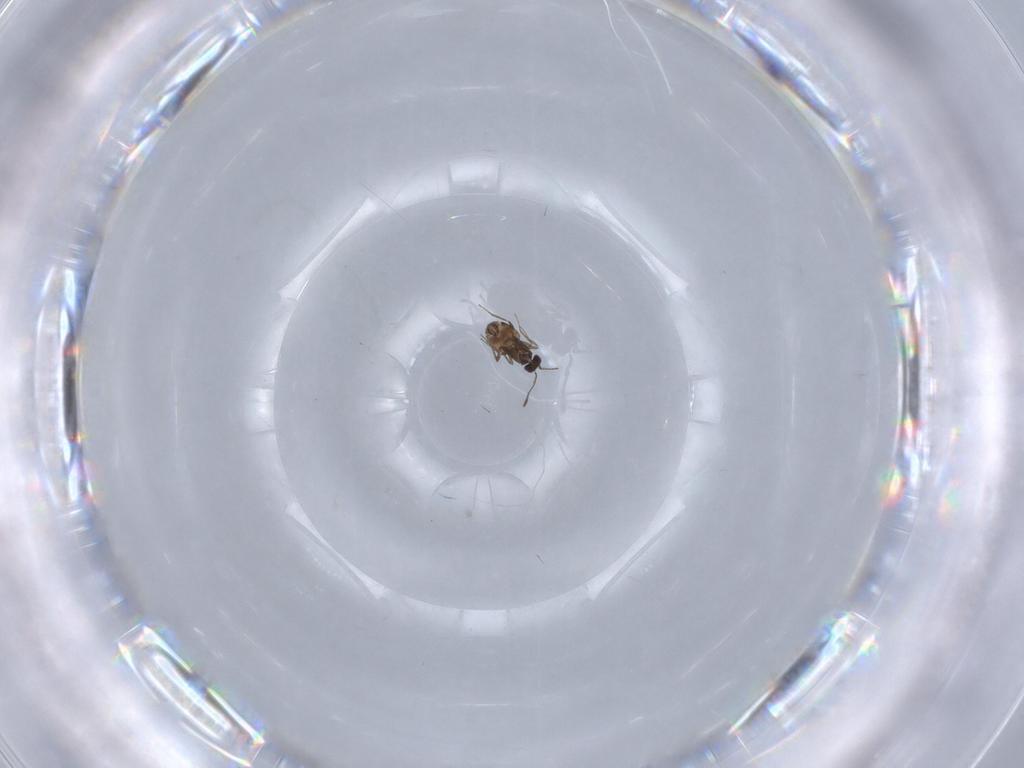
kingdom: Animalia
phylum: Arthropoda
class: Insecta
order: Hymenoptera
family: Mymaridae
